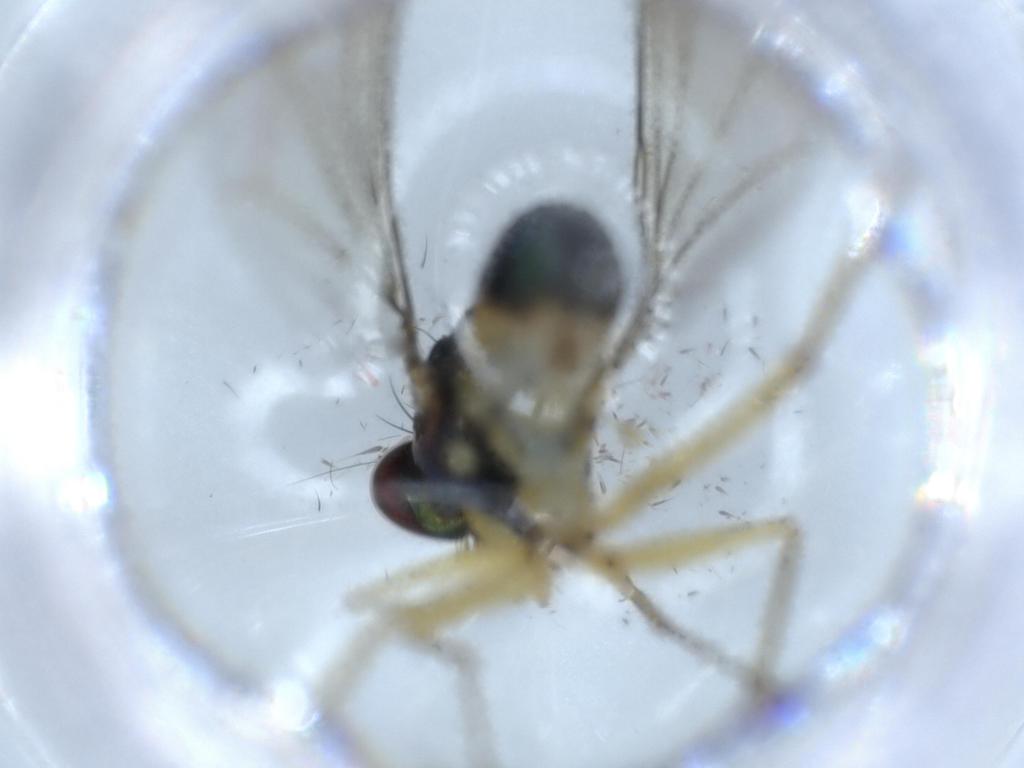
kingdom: Animalia
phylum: Arthropoda
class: Insecta
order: Diptera
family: Dolichopodidae
